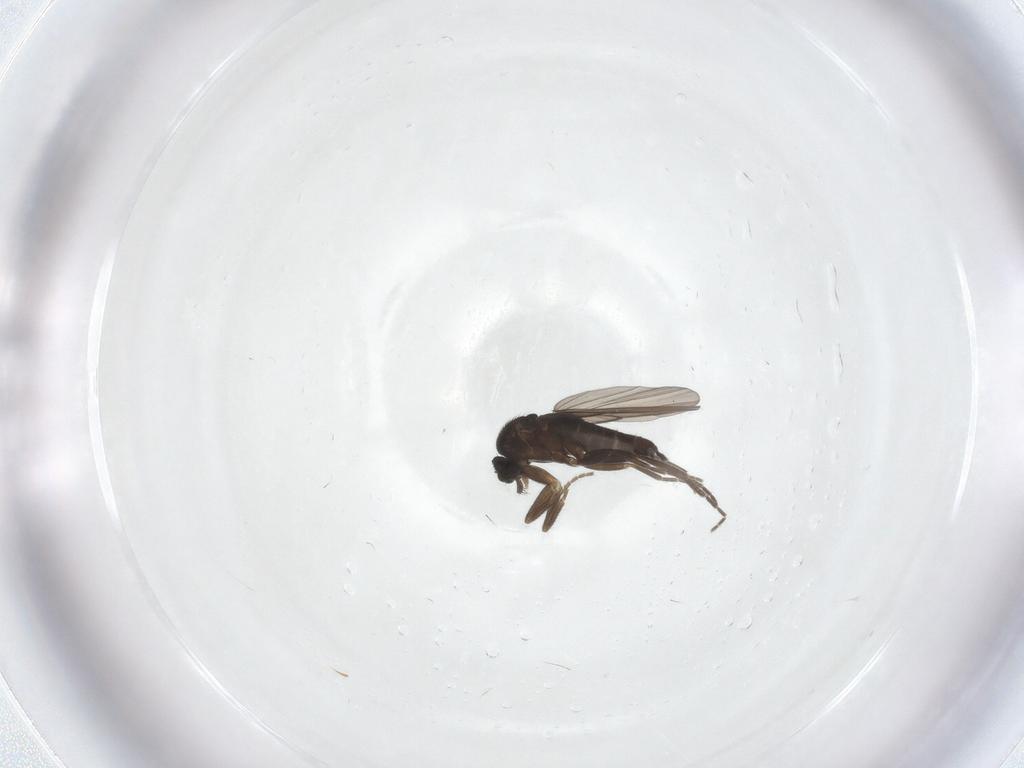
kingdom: Animalia
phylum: Arthropoda
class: Insecta
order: Diptera
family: Phoridae
